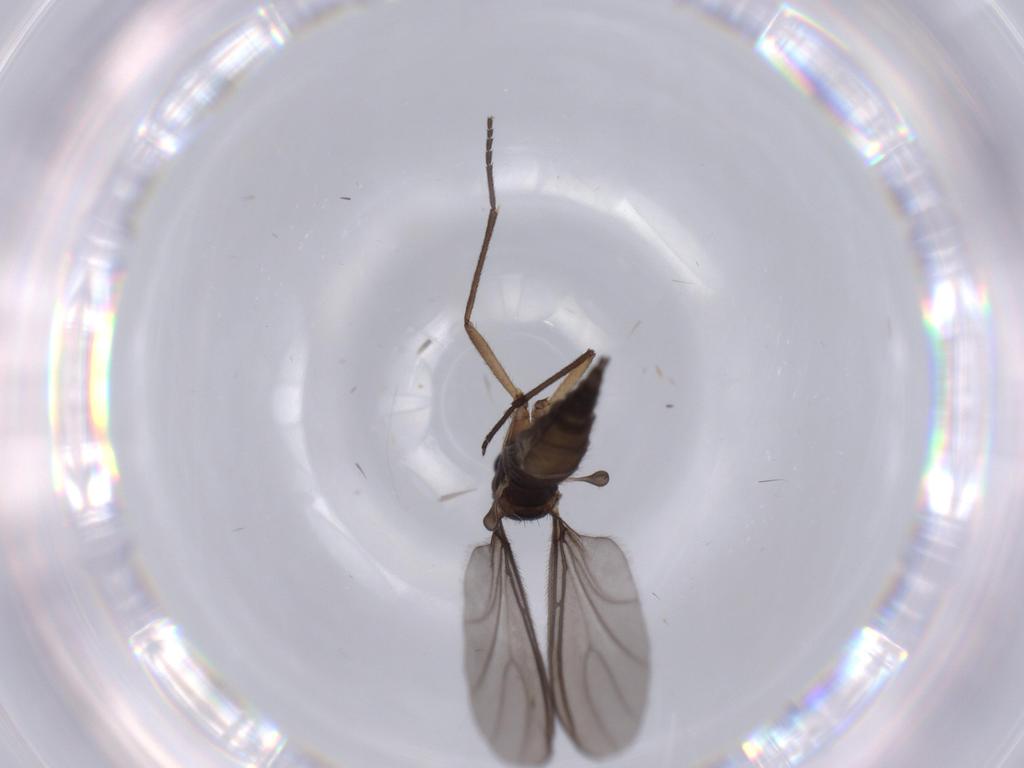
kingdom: Animalia
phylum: Arthropoda
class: Insecta
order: Diptera
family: Sciaridae
